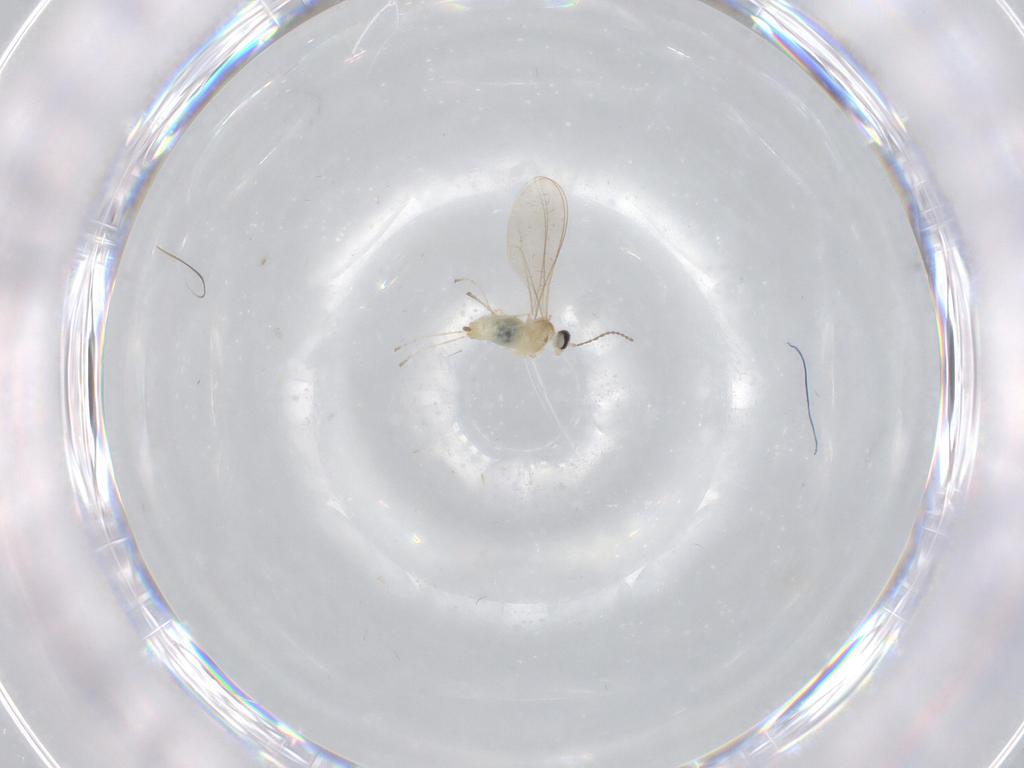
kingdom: Animalia
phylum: Arthropoda
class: Insecta
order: Diptera
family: Cecidomyiidae
